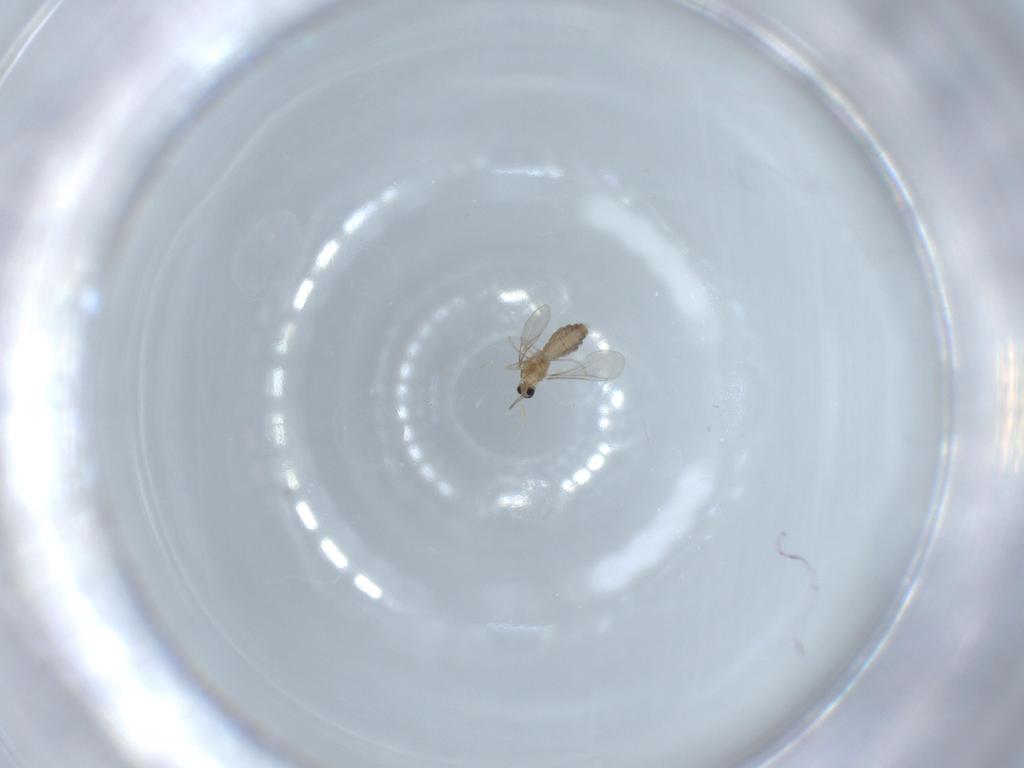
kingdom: Animalia
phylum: Arthropoda
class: Insecta
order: Diptera
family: Cecidomyiidae
